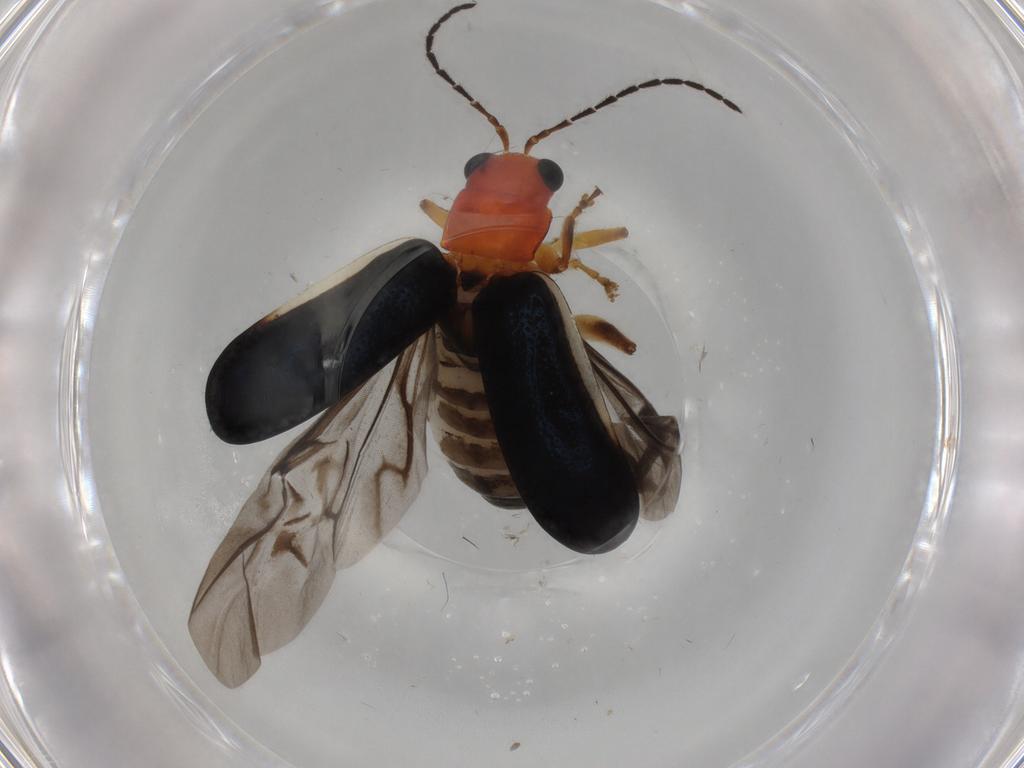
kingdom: Animalia
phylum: Arthropoda
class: Insecta
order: Coleoptera
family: Chrysomelidae
